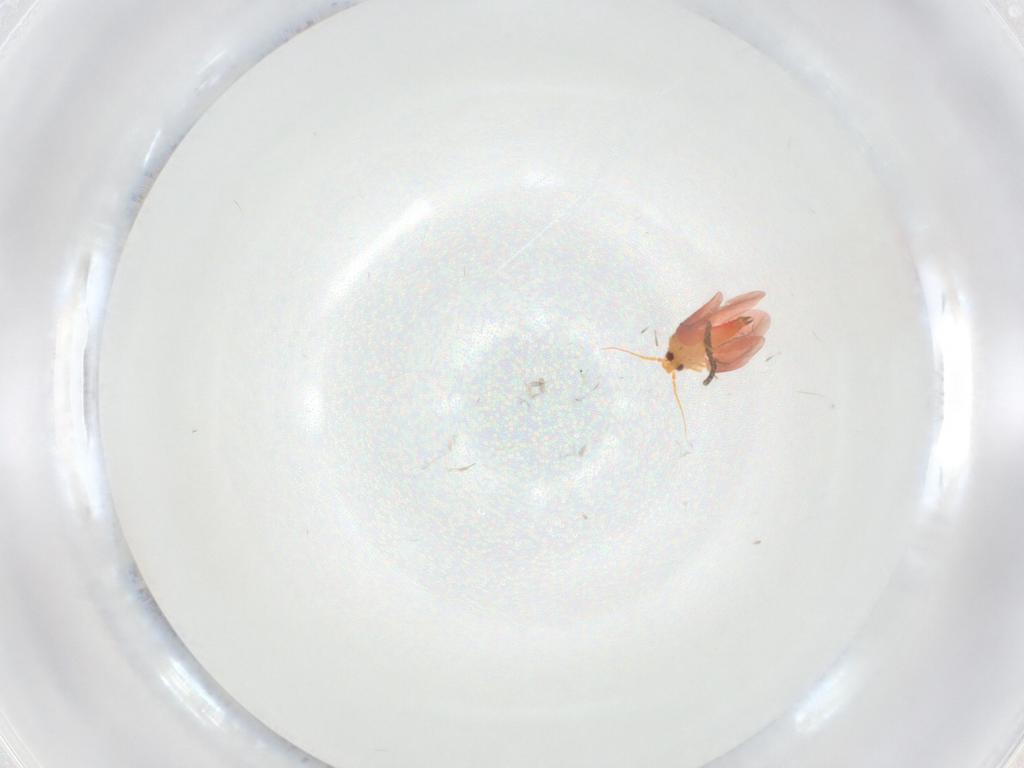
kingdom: Animalia
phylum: Arthropoda
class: Insecta
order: Hemiptera
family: Aleyrodidae
